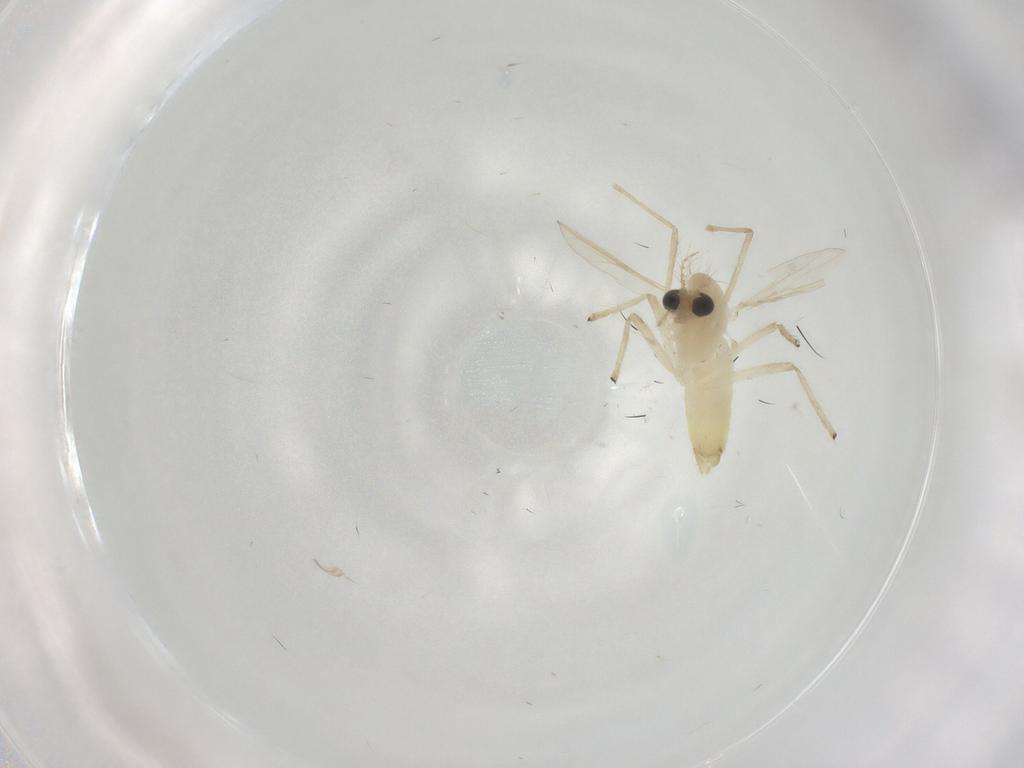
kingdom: Animalia
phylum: Arthropoda
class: Insecta
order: Diptera
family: Chironomidae
